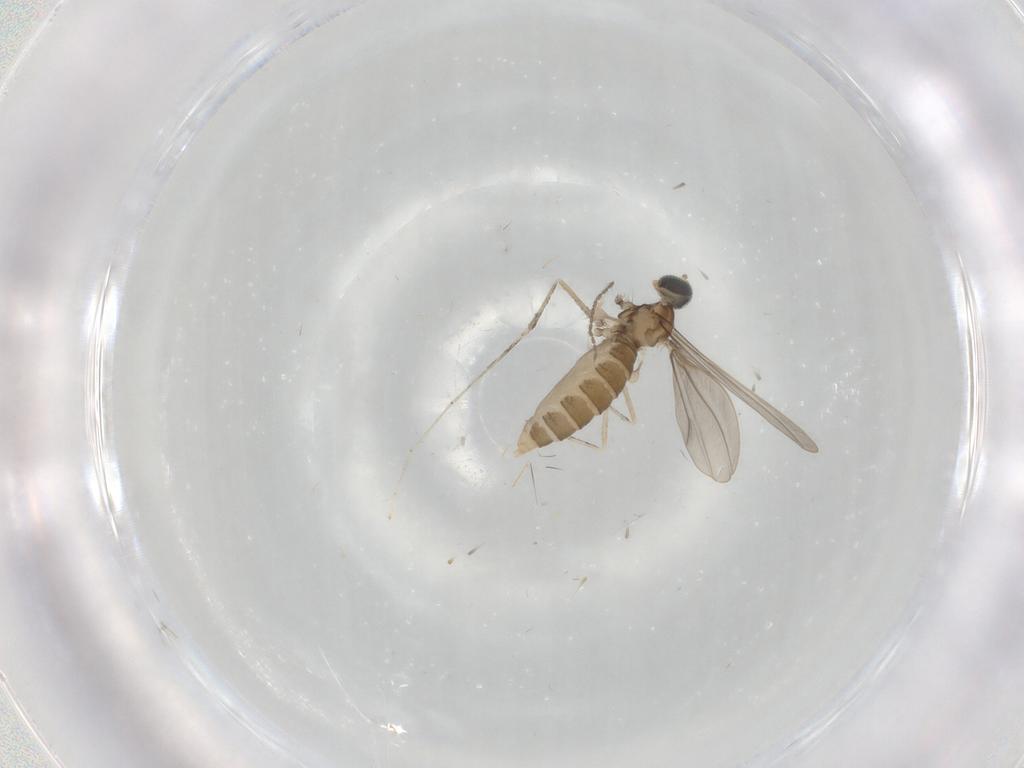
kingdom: Animalia
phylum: Arthropoda
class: Insecta
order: Diptera
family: Cecidomyiidae
